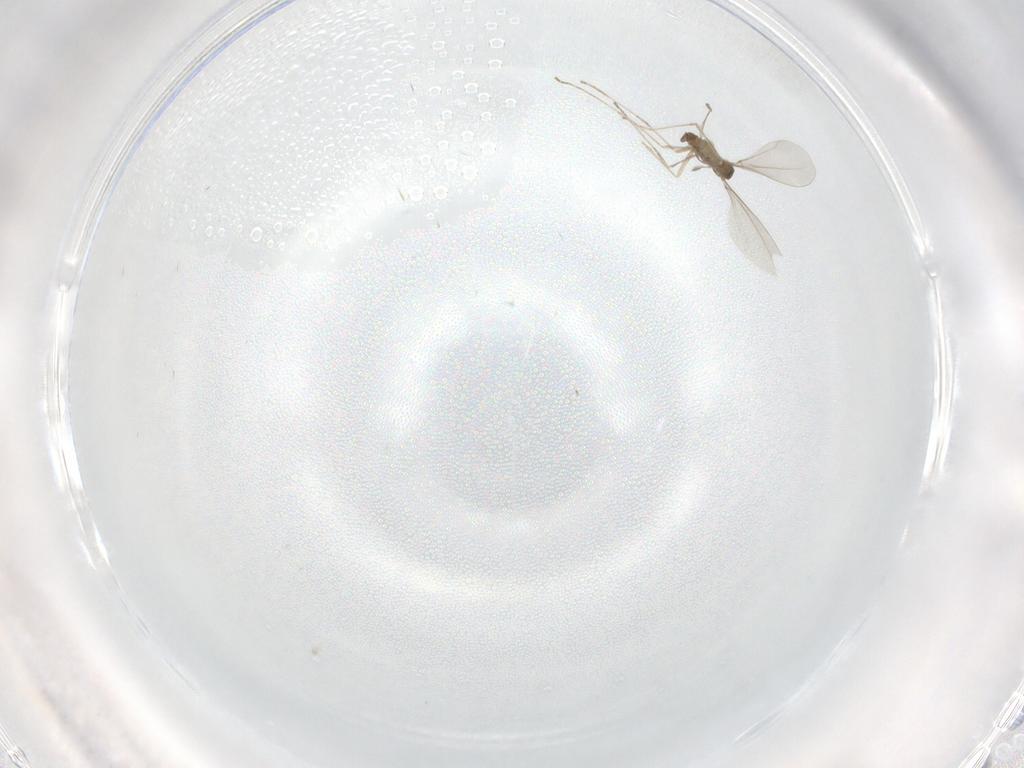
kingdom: Animalia
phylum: Arthropoda
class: Insecta
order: Diptera
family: Cecidomyiidae
